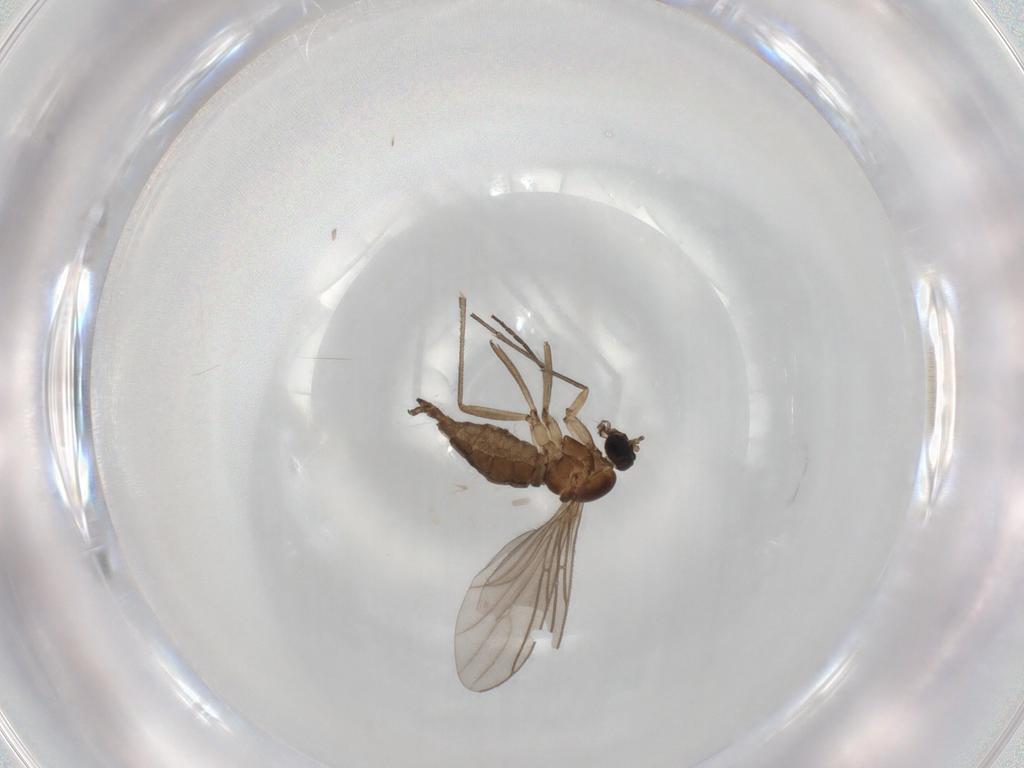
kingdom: Animalia
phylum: Arthropoda
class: Insecta
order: Diptera
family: Sciaridae
